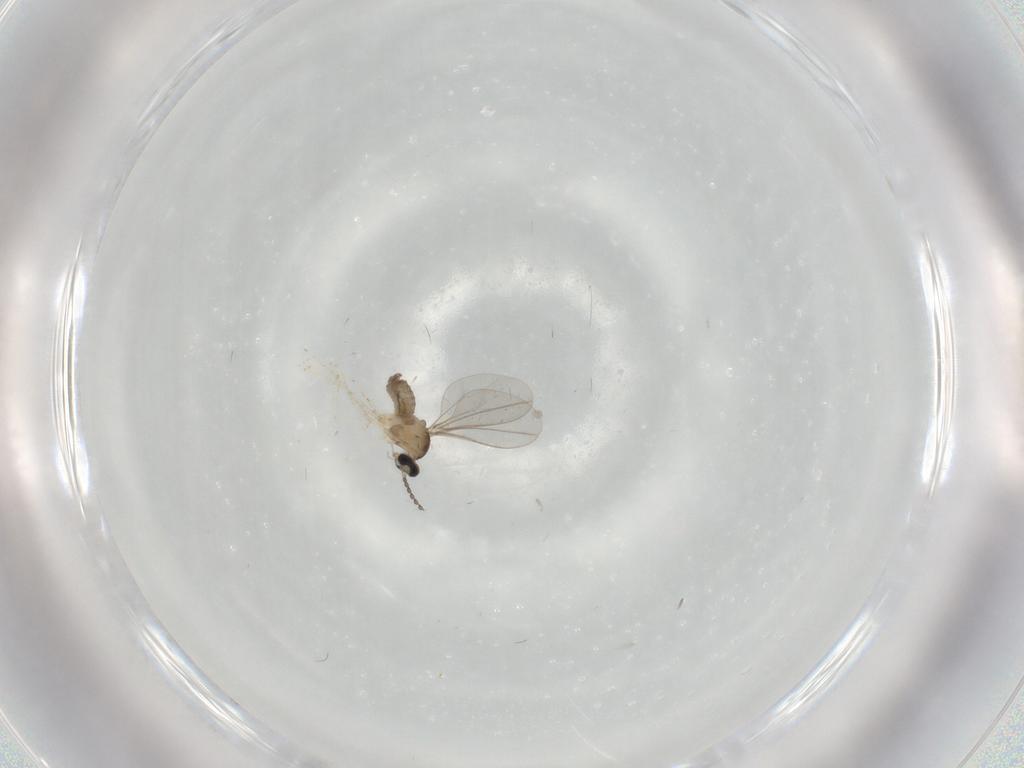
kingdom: Animalia
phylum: Arthropoda
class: Insecta
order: Diptera
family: Cecidomyiidae
